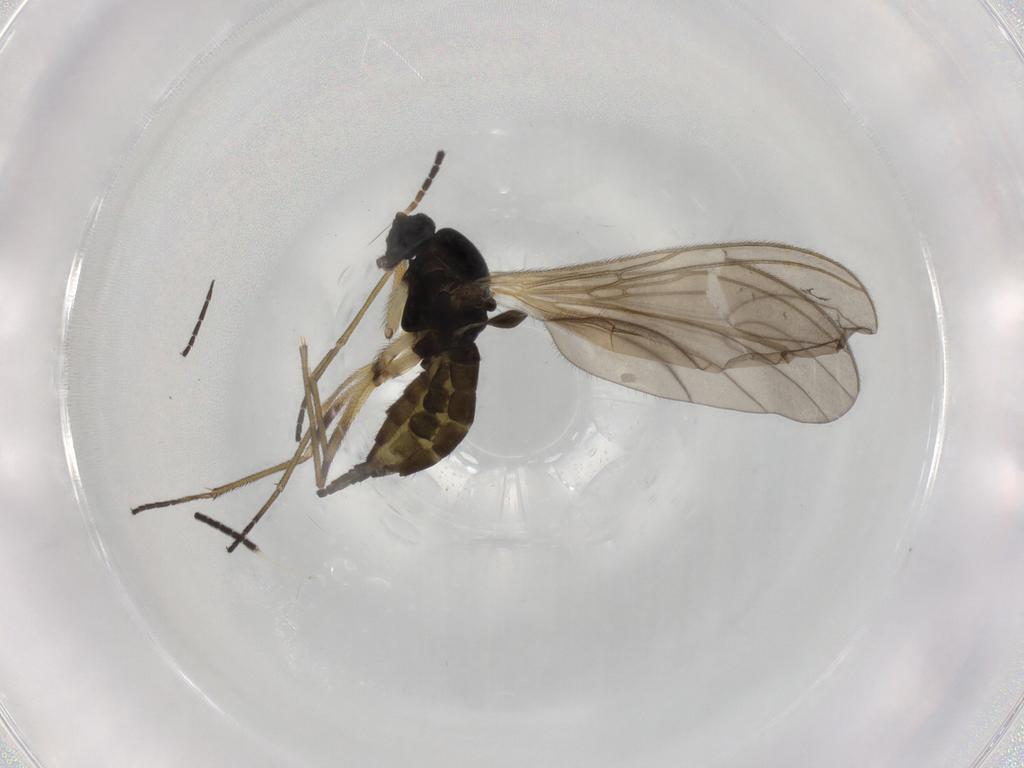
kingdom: Animalia
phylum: Arthropoda
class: Insecta
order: Diptera
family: Sciaridae
